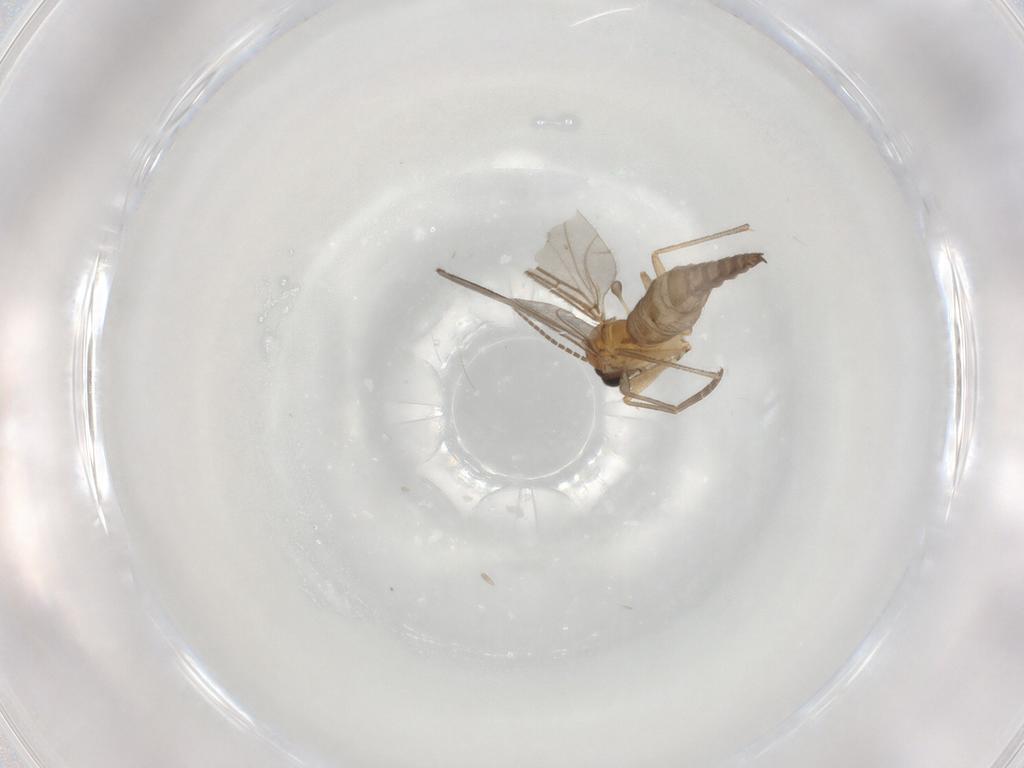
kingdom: Animalia
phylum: Arthropoda
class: Insecta
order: Diptera
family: Sciaridae
